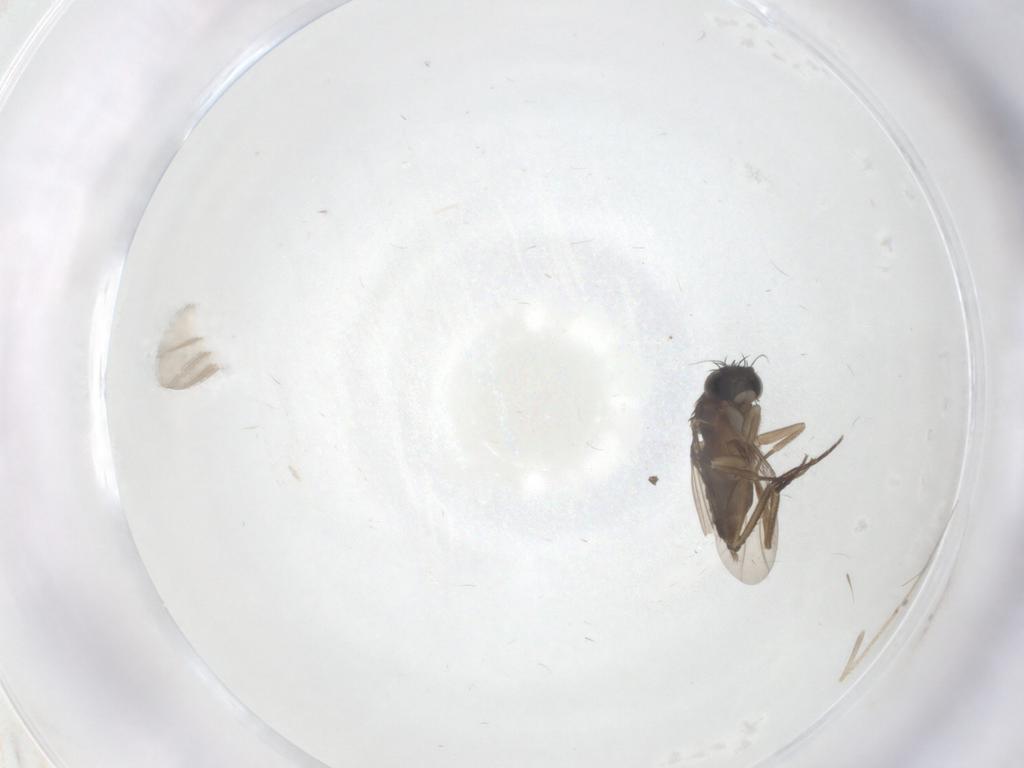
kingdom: Animalia
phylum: Arthropoda
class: Insecta
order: Diptera
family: Phoridae
